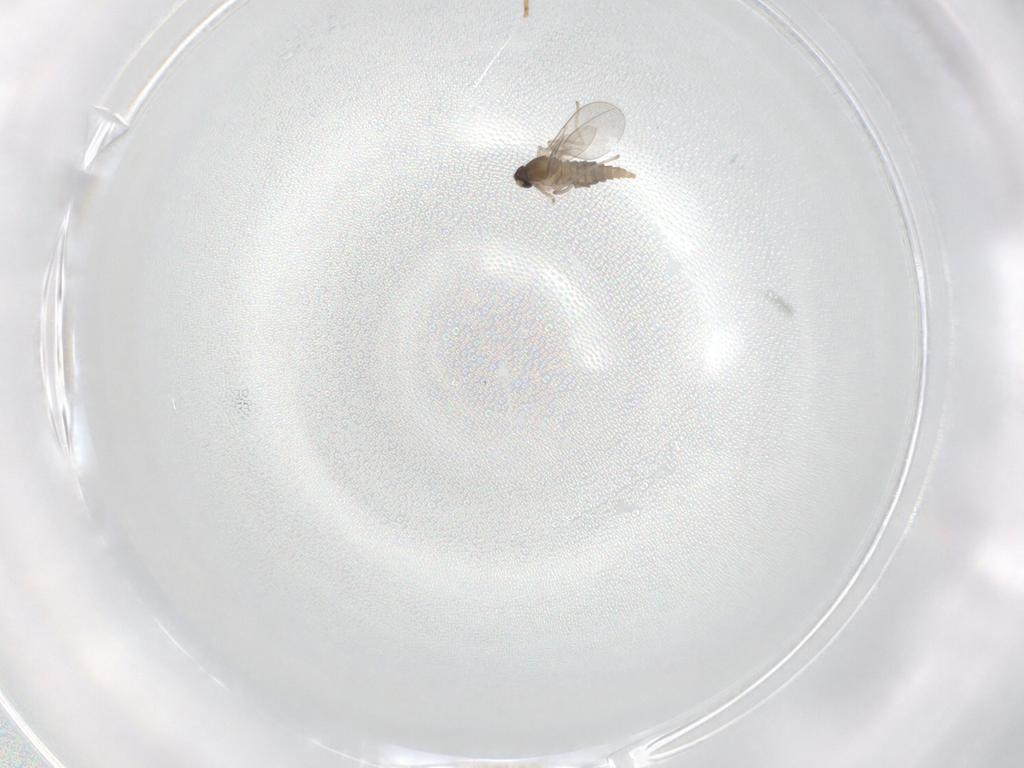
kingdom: Animalia
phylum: Arthropoda
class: Insecta
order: Diptera
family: Chironomidae
